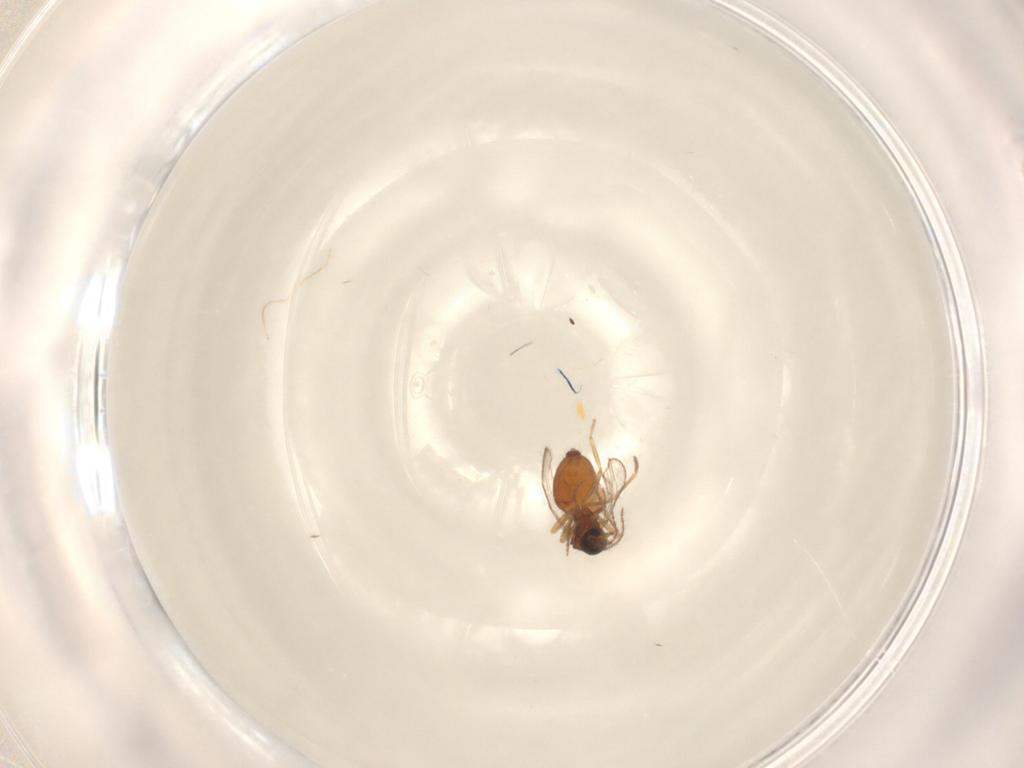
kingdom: Animalia
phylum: Arthropoda
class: Insecta
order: Diptera
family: Ceratopogonidae
